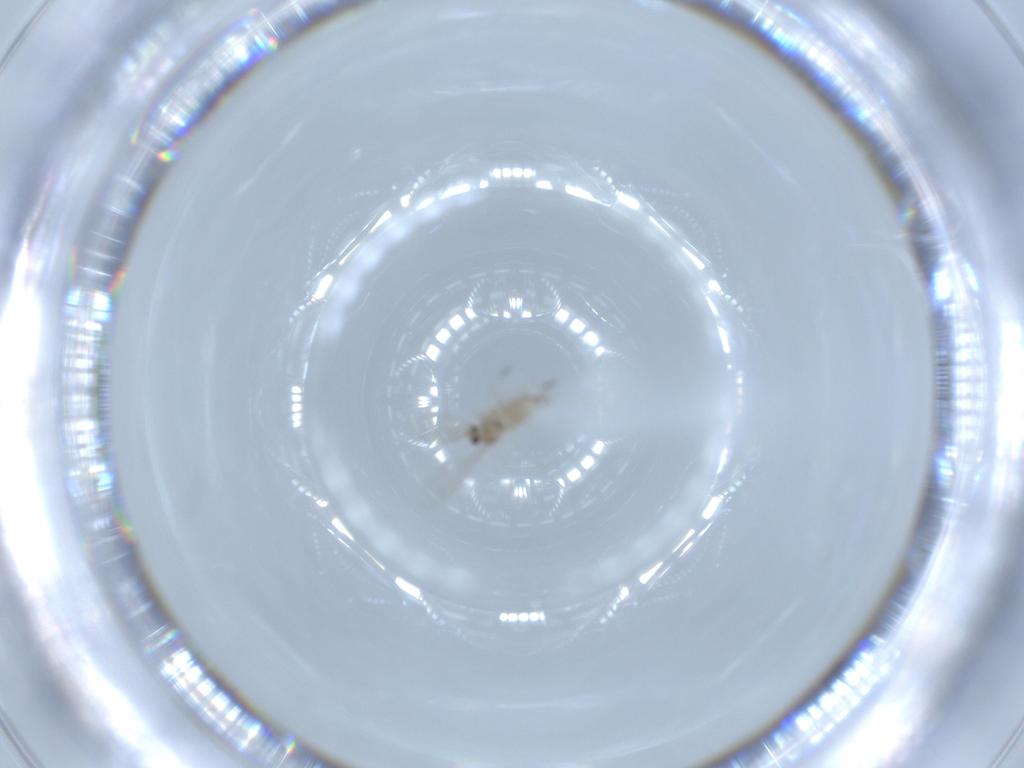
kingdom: Animalia
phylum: Arthropoda
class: Insecta
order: Diptera
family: Cecidomyiidae
